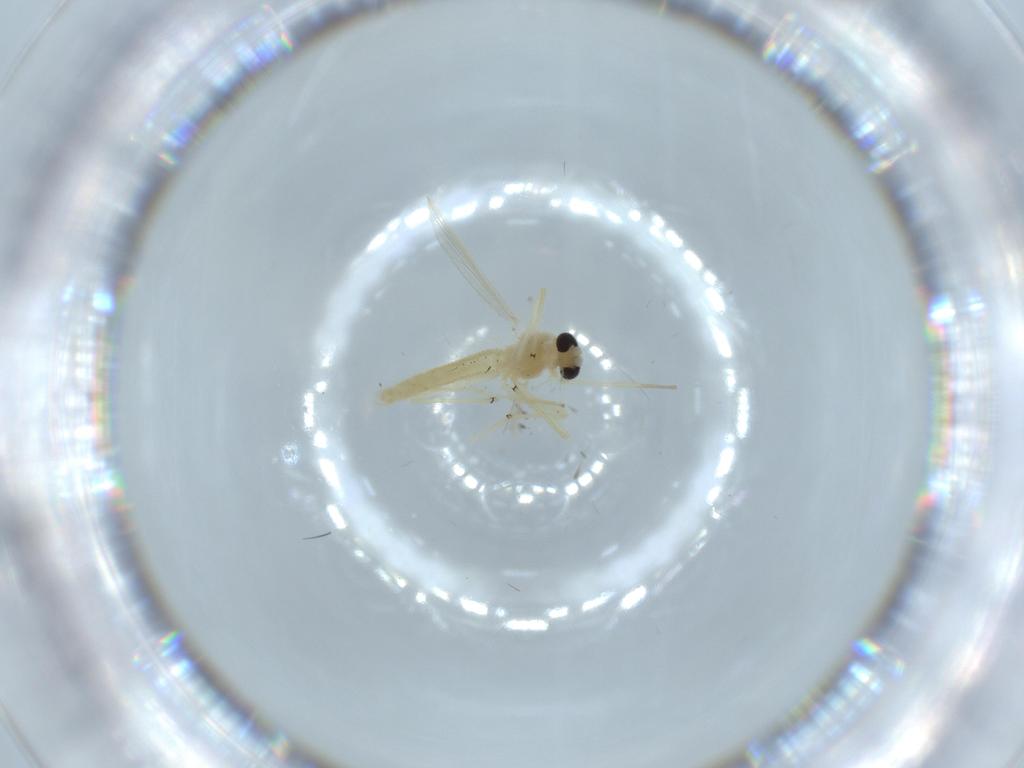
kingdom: Animalia
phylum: Arthropoda
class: Insecta
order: Diptera
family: Chironomidae
